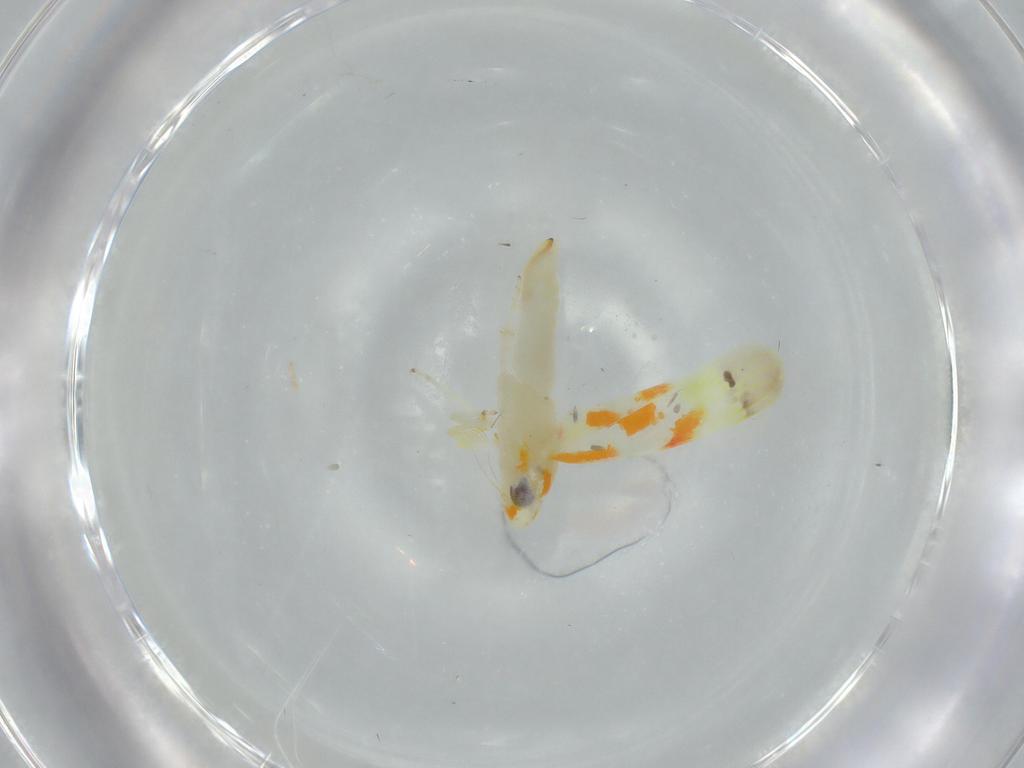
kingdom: Animalia
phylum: Arthropoda
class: Insecta
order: Hemiptera
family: Cicadellidae
